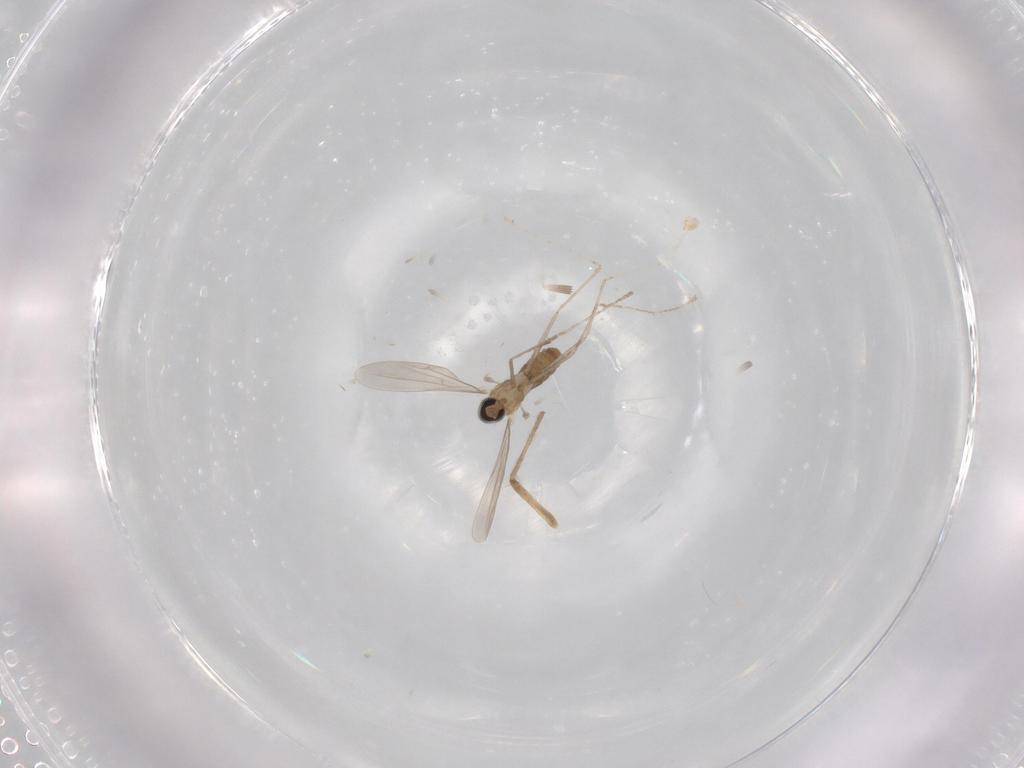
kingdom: Animalia
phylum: Arthropoda
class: Insecta
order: Diptera
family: Cecidomyiidae
